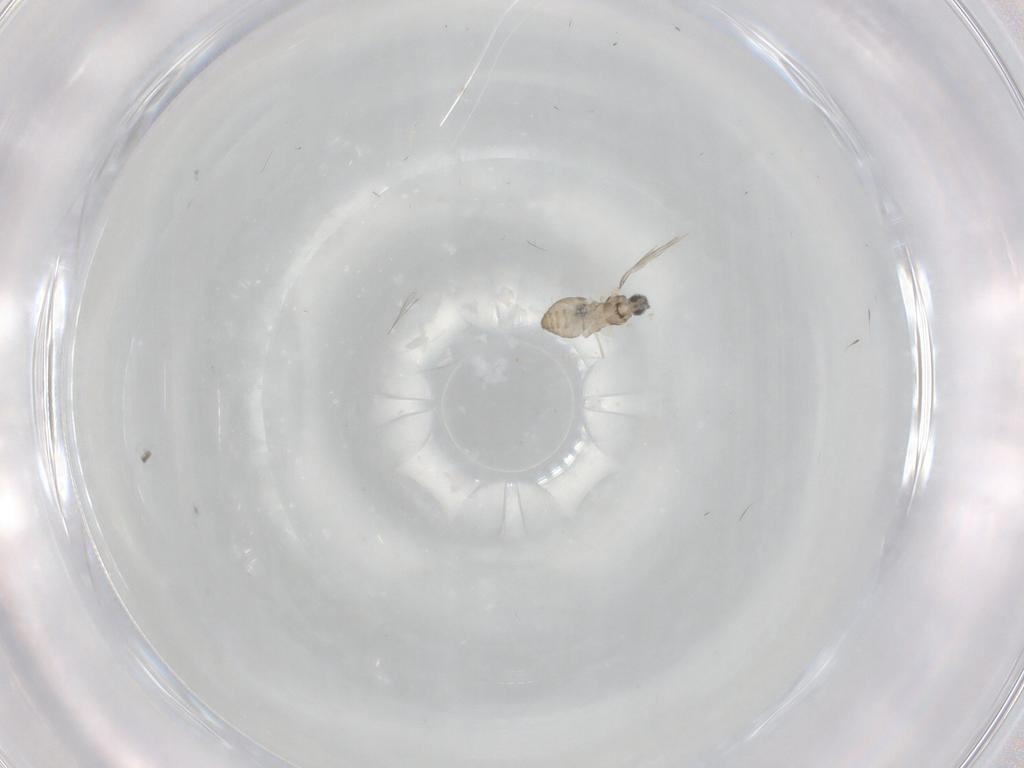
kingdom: Animalia
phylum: Arthropoda
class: Insecta
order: Diptera
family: Cecidomyiidae
